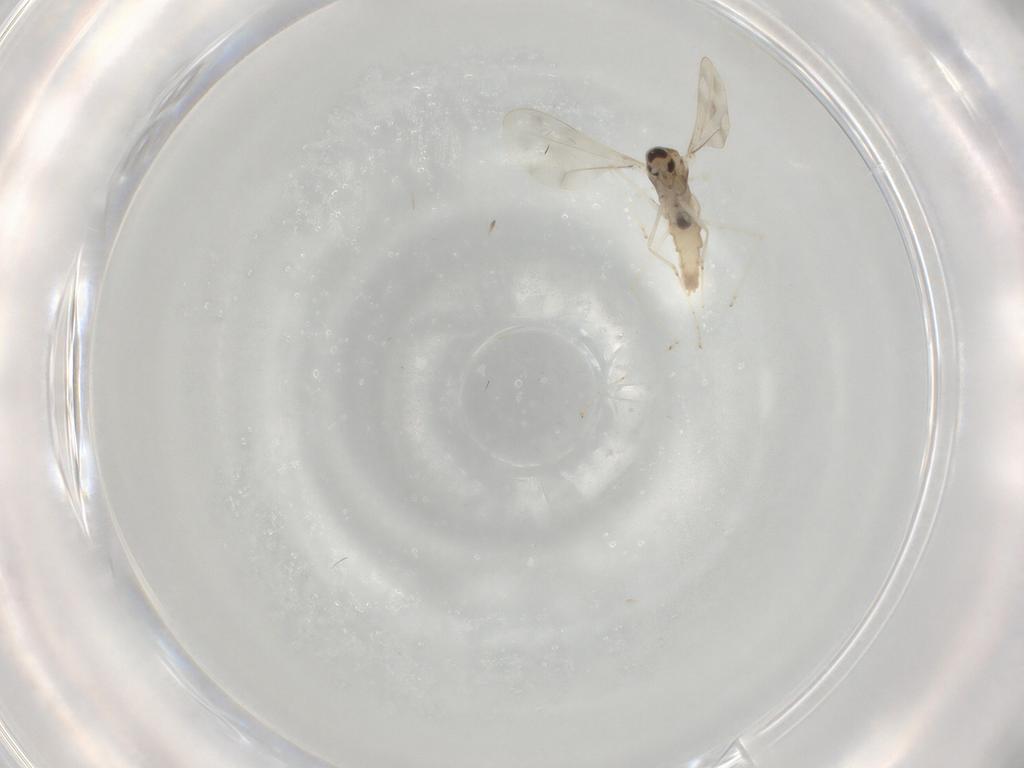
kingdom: Animalia
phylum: Arthropoda
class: Insecta
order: Diptera
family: Cecidomyiidae
